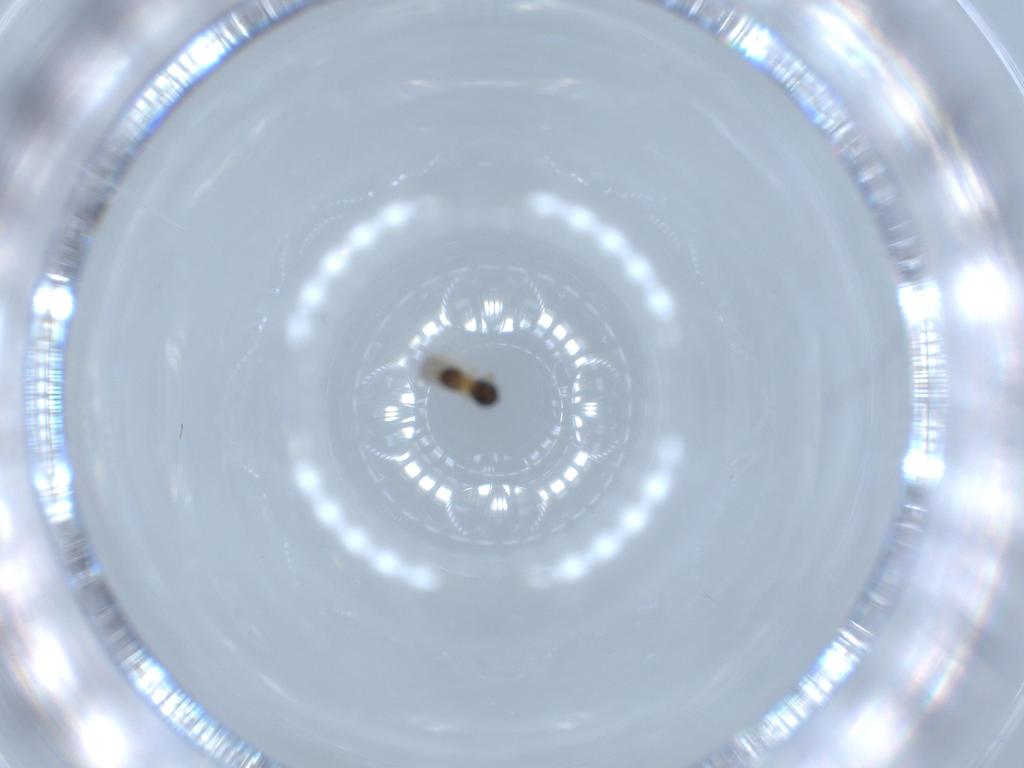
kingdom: Animalia
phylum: Arthropoda
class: Insecta
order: Hymenoptera
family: Scelionidae
